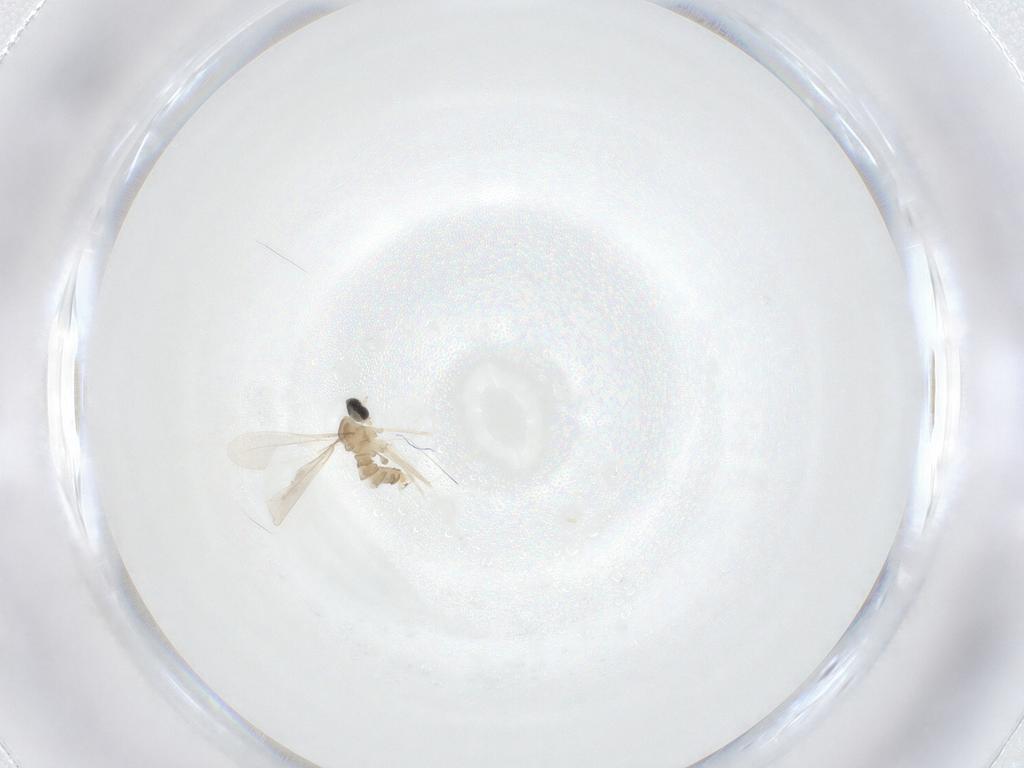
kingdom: Animalia
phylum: Arthropoda
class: Insecta
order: Diptera
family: Cecidomyiidae
